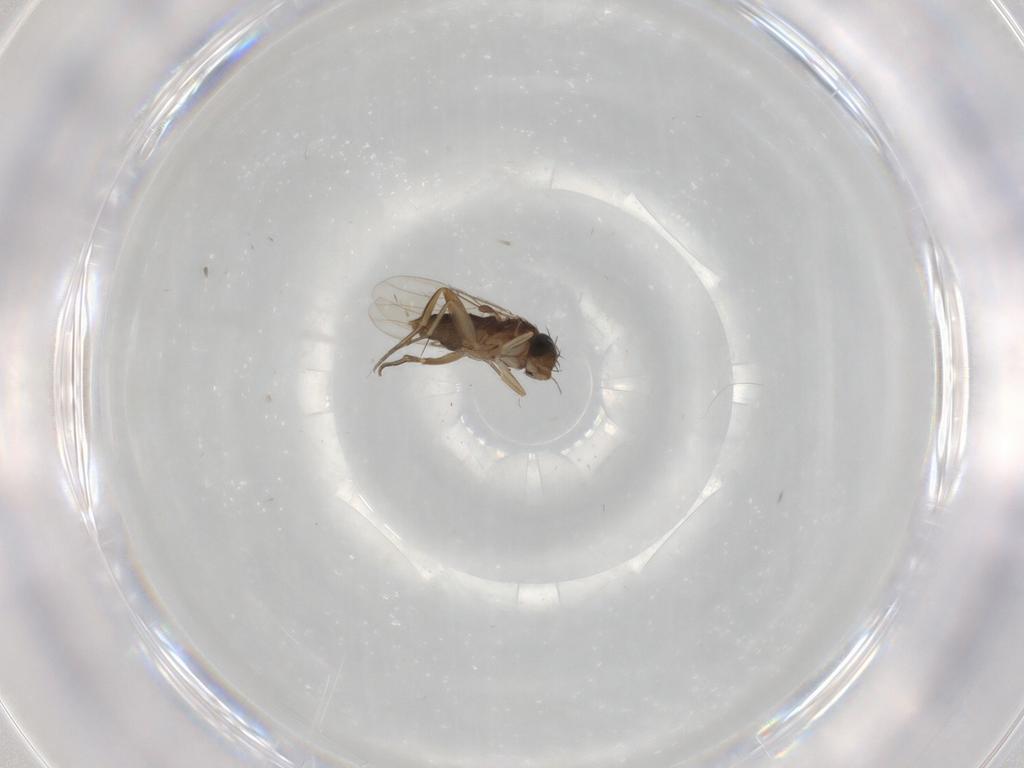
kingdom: Animalia
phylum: Arthropoda
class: Insecta
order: Diptera
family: Phoridae
